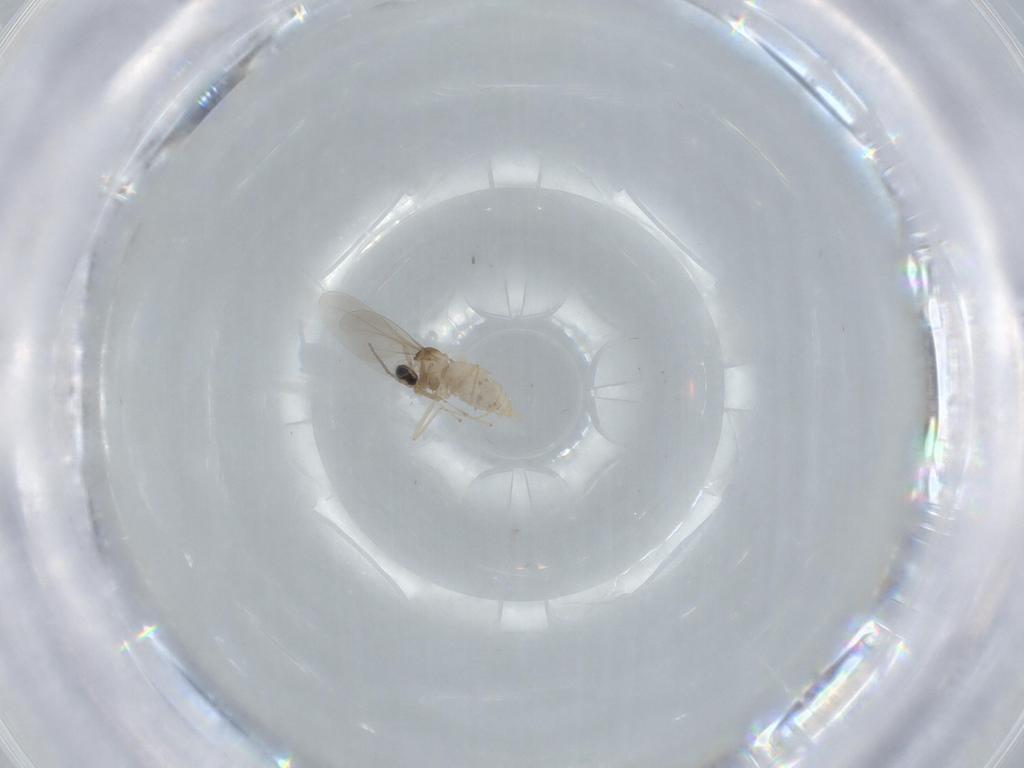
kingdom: Animalia
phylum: Arthropoda
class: Insecta
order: Diptera
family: Cecidomyiidae
